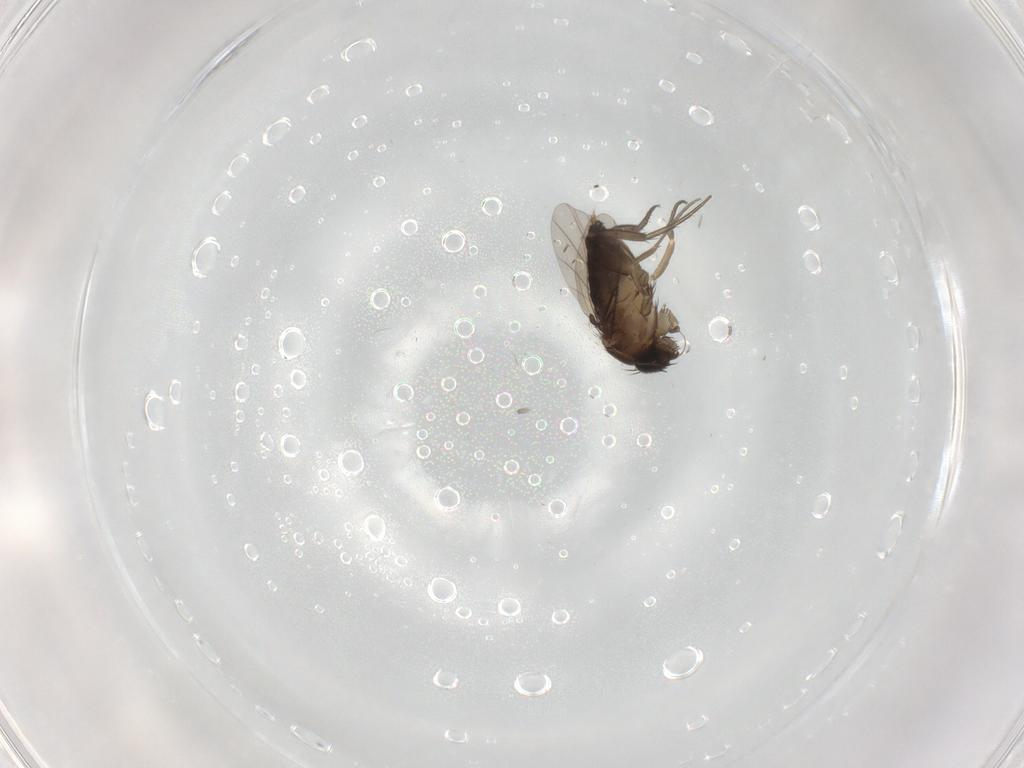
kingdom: Animalia
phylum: Arthropoda
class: Insecta
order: Diptera
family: Phoridae
